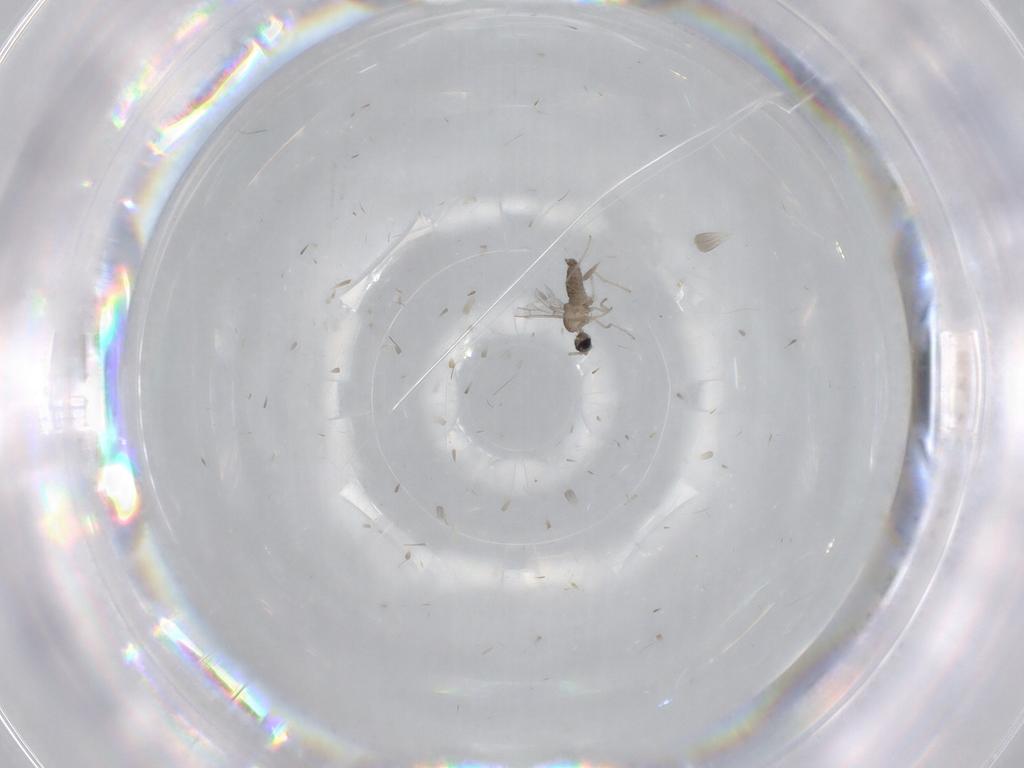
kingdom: Animalia
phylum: Arthropoda
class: Insecta
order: Diptera
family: Cecidomyiidae
